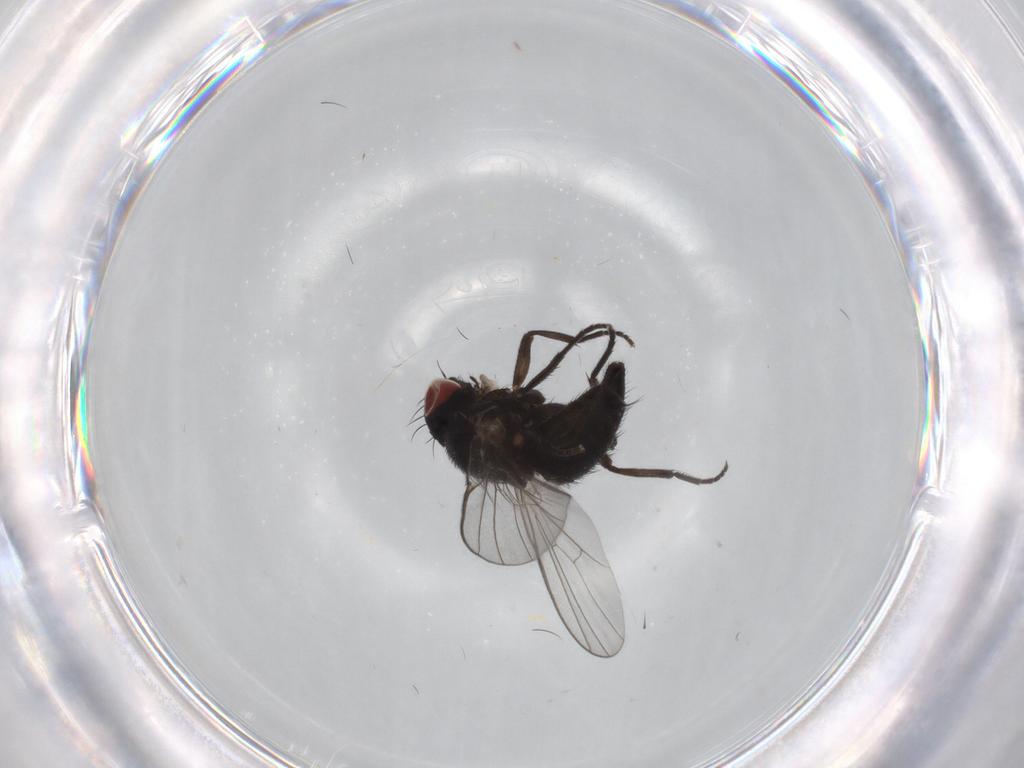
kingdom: Animalia
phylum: Arthropoda
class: Insecta
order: Diptera
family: Agromyzidae
